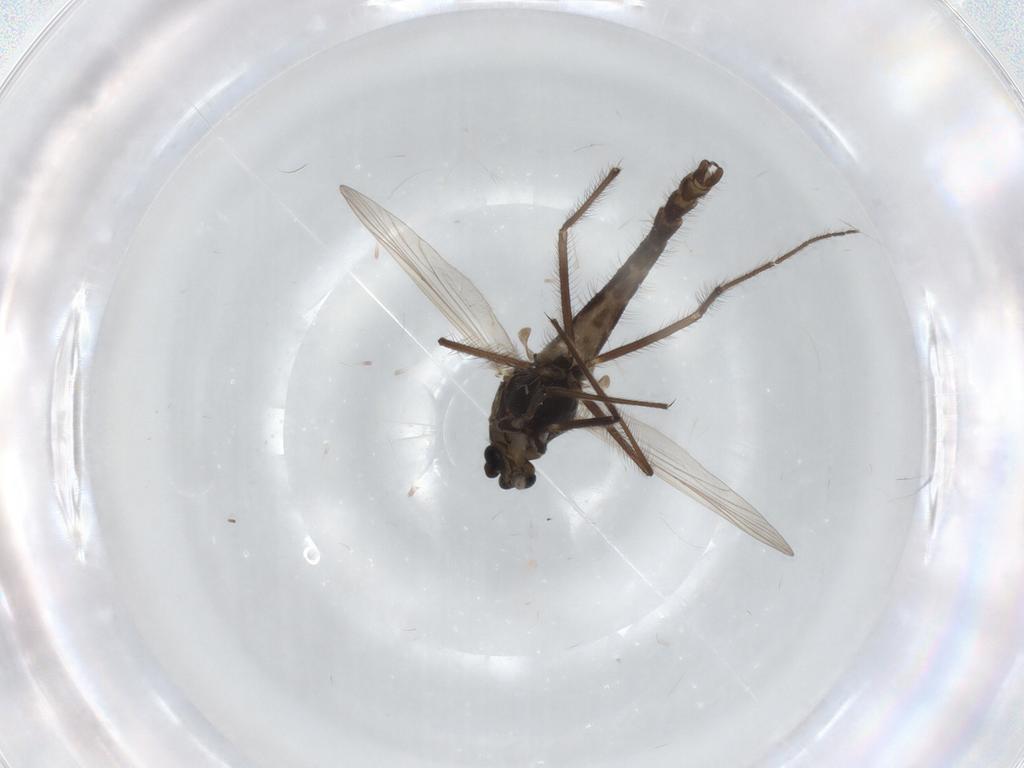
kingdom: Animalia
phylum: Arthropoda
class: Insecta
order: Diptera
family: Chironomidae
